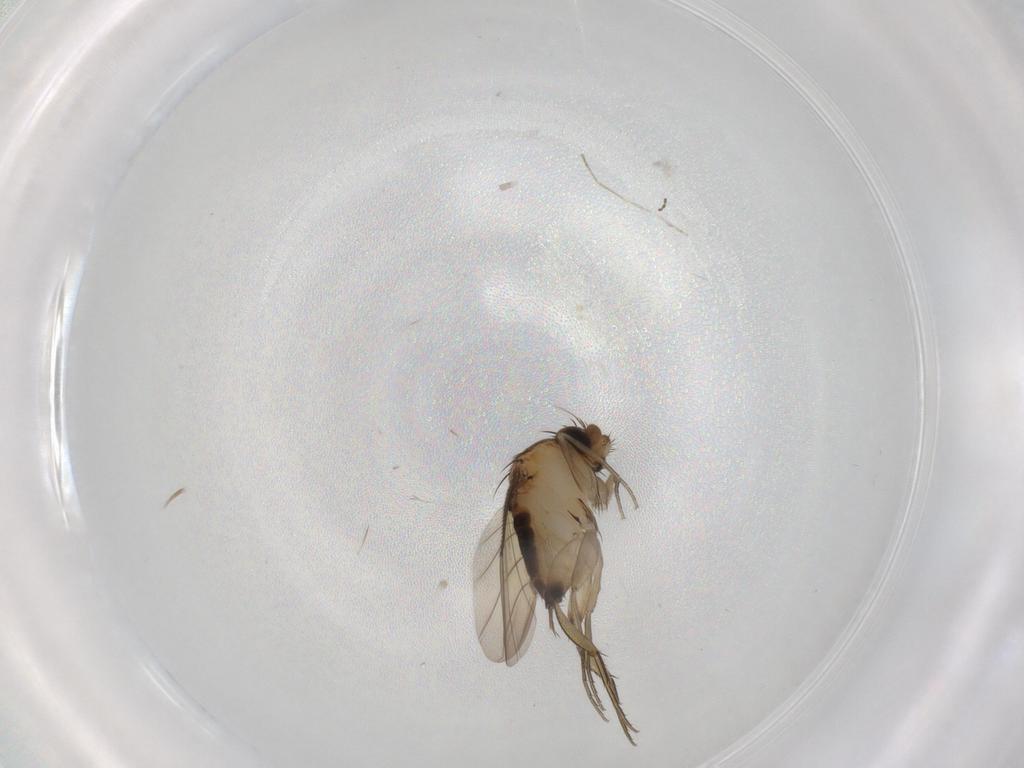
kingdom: Animalia
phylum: Arthropoda
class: Insecta
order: Diptera
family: Phoridae
